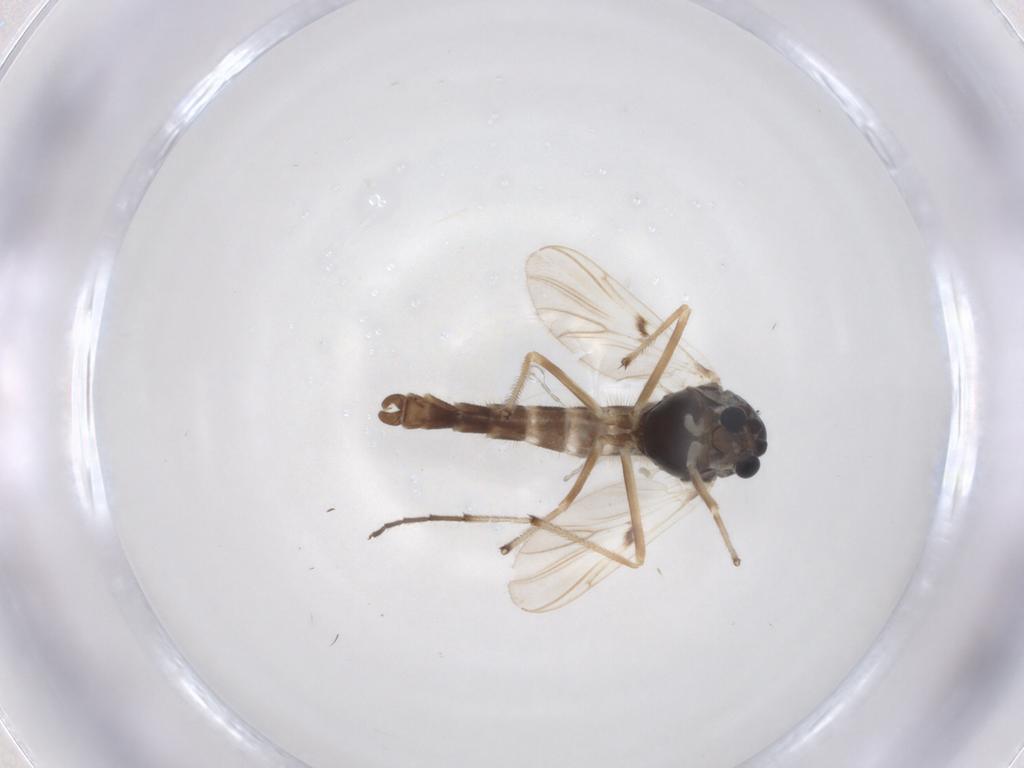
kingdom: Animalia
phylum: Arthropoda
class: Insecta
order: Diptera
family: Chironomidae
